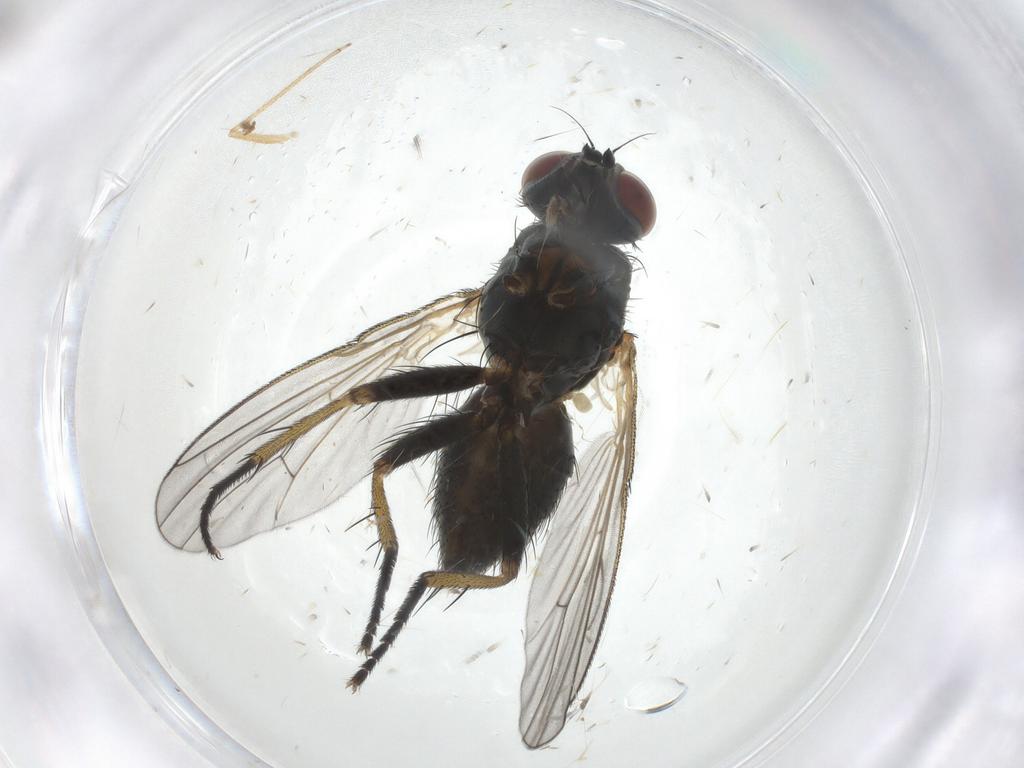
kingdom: Animalia
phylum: Arthropoda
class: Insecta
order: Diptera
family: Muscidae
